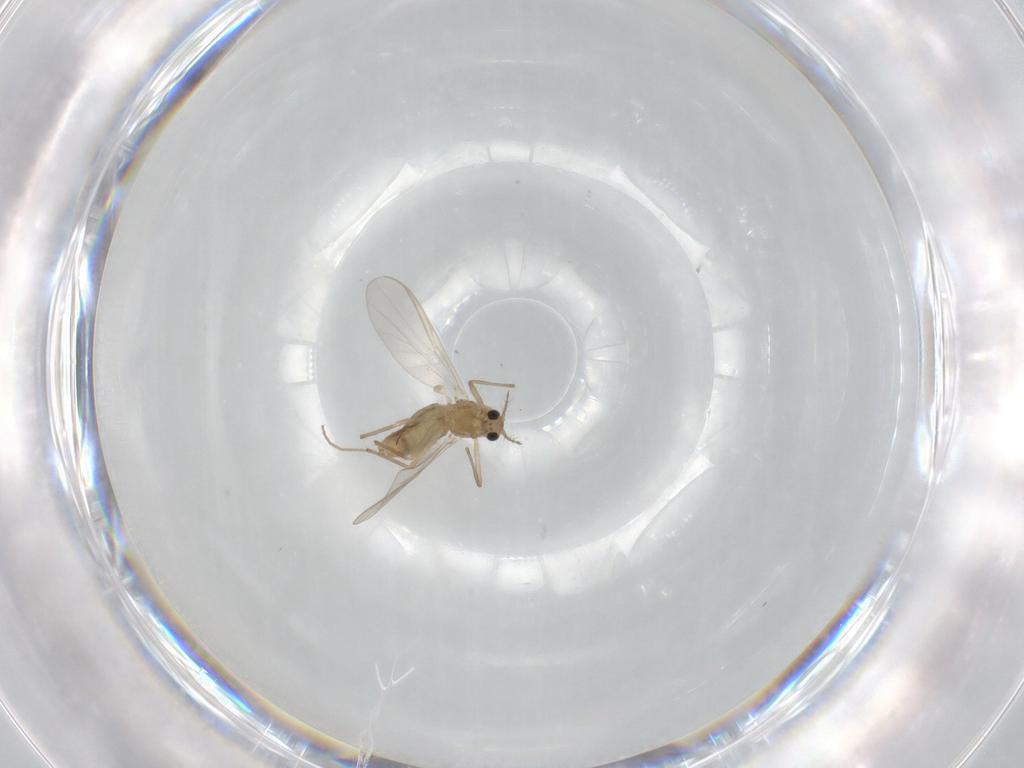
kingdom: Animalia
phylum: Arthropoda
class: Insecta
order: Diptera
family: Chironomidae
